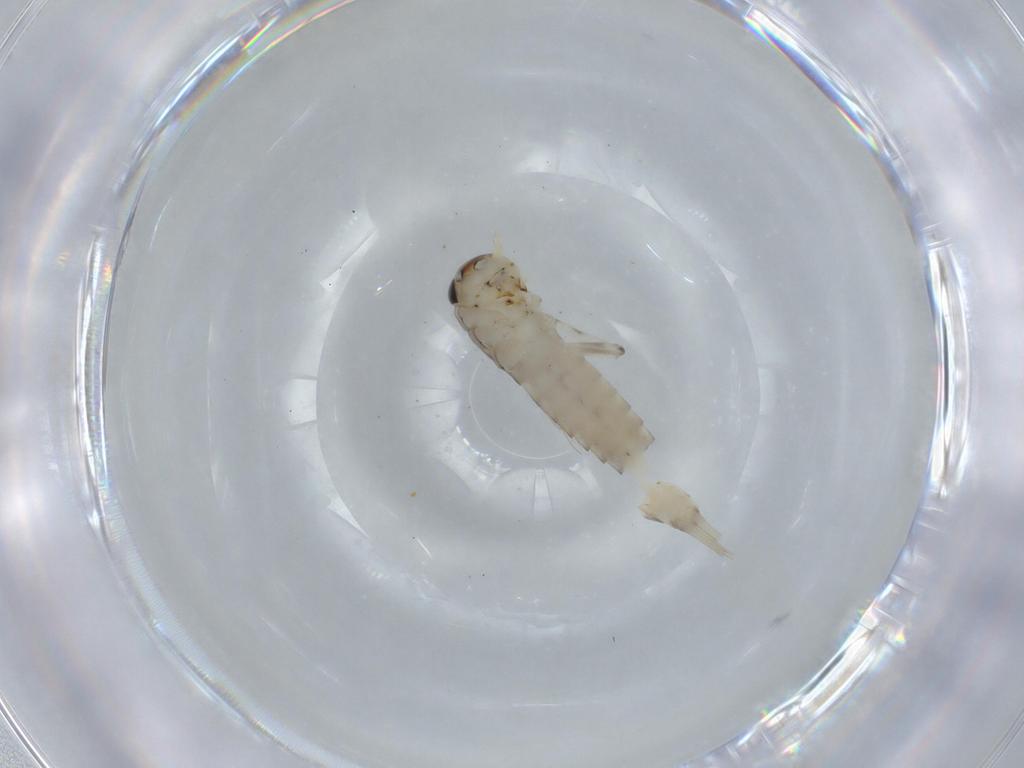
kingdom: Animalia
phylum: Arthropoda
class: Insecta
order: Ephemeroptera
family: Baetidae
